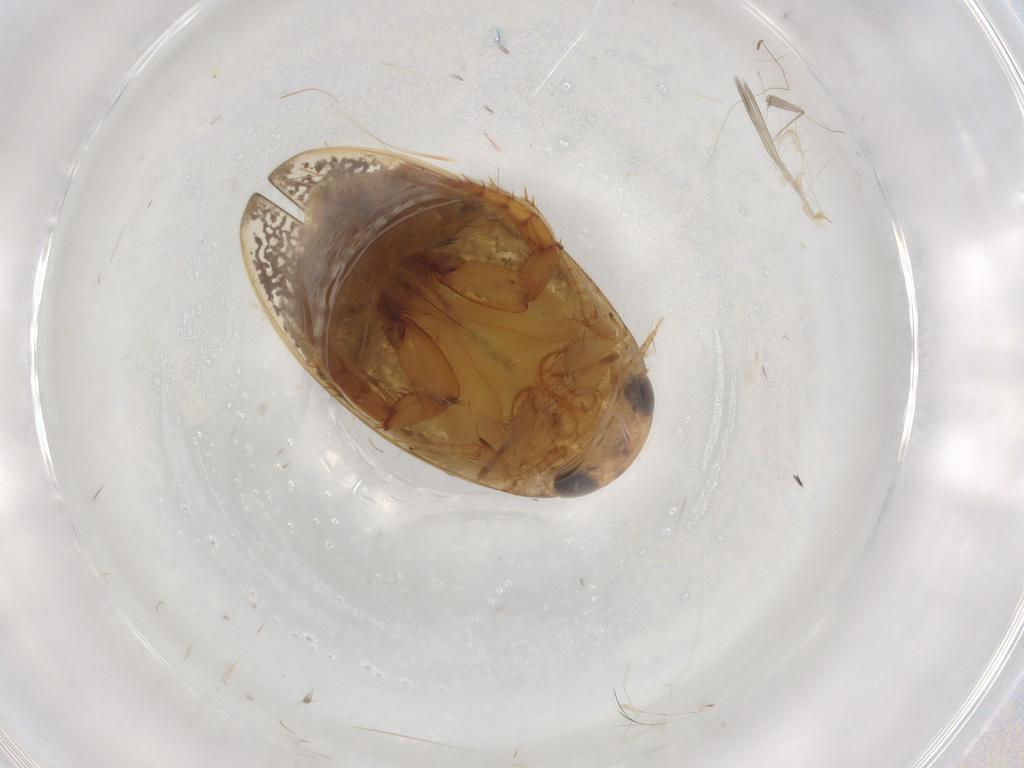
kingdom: Animalia
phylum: Arthropoda
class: Insecta
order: Coleoptera
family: Dytiscidae
